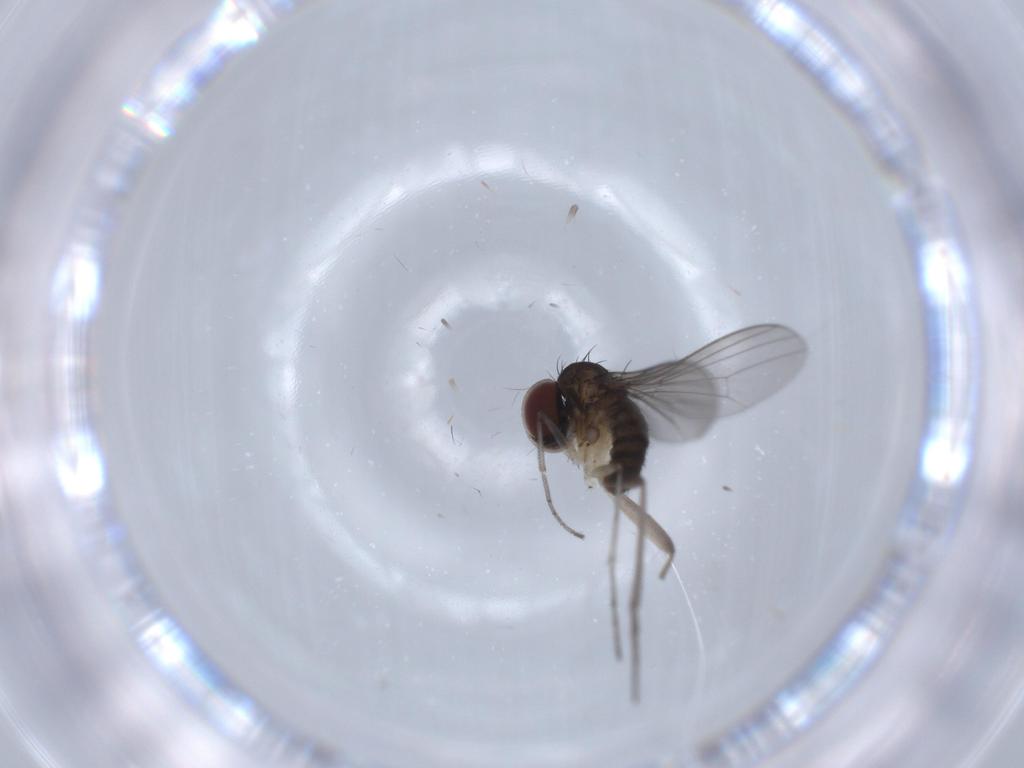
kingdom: Animalia
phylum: Arthropoda
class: Insecta
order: Diptera
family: Dolichopodidae
